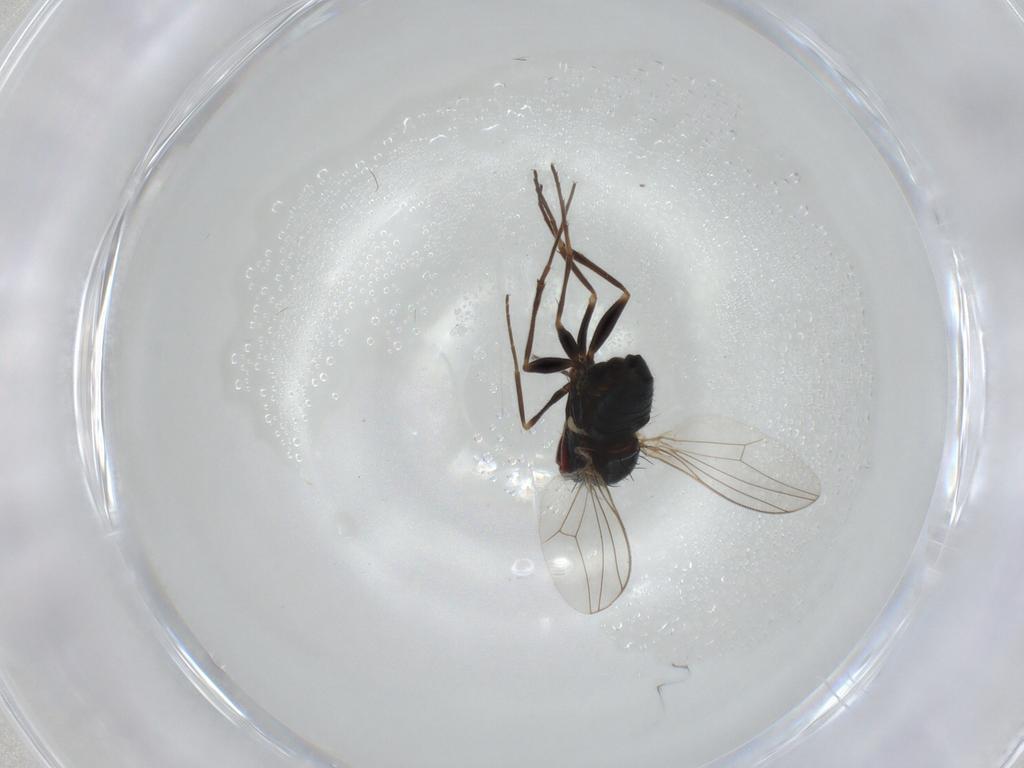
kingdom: Animalia
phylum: Arthropoda
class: Insecta
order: Diptera
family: Dolichopodidae
